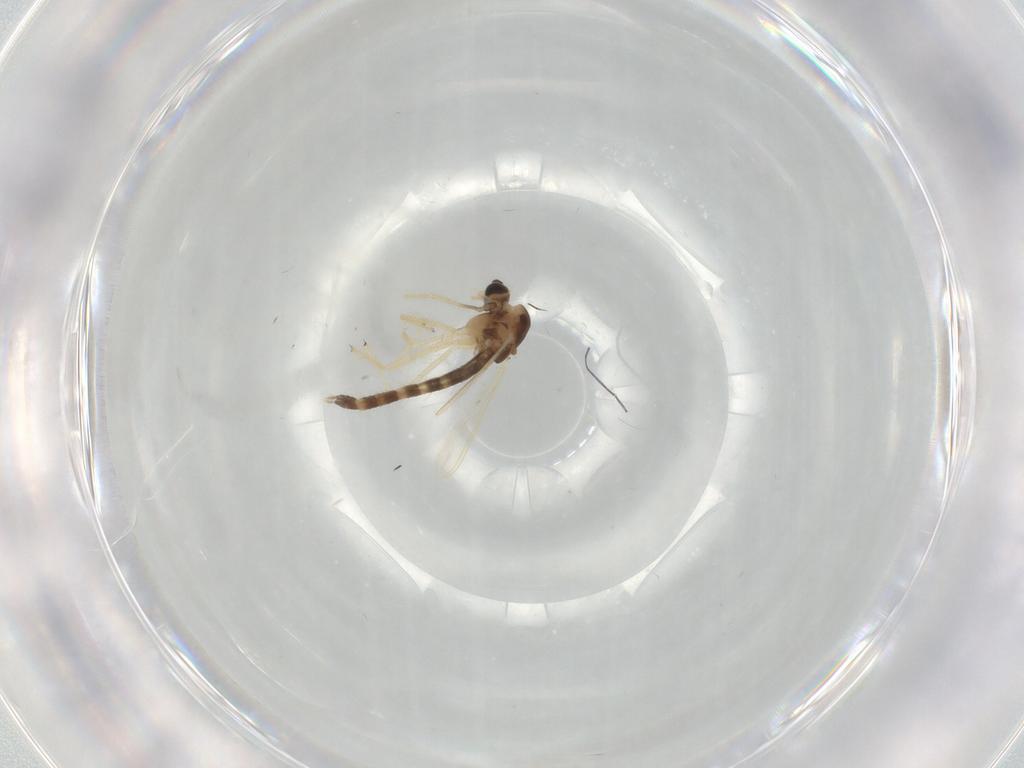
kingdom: Animalia
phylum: Arthropoda
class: Insecta
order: Diptera
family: Chironomidae
